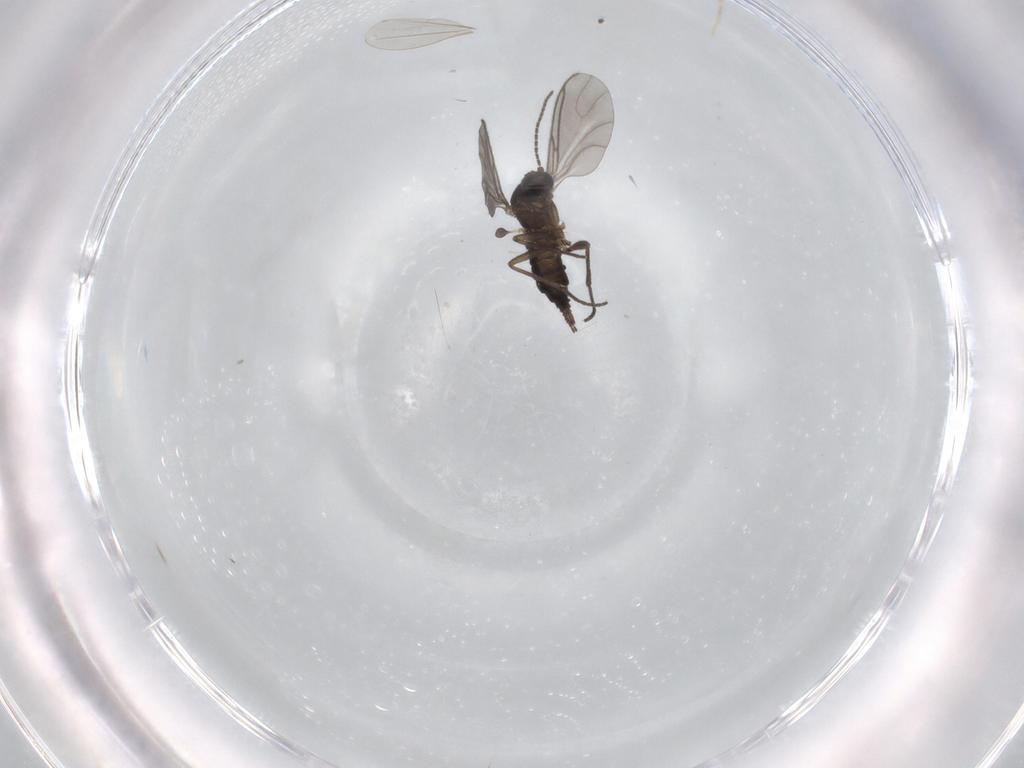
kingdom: Animalia
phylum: Arthropoda
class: Insecta
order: Diptera
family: Sciaridae
